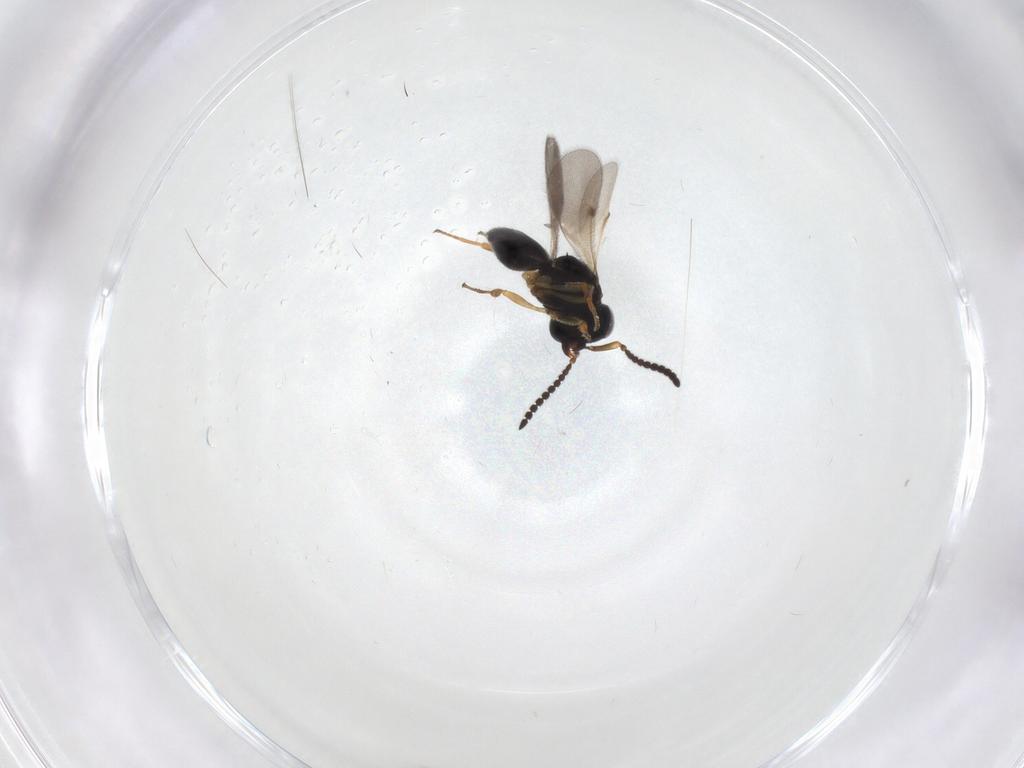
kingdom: Animalia
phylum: Arthropoda
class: Insecta
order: Hymenoptera
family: Scelionidae
